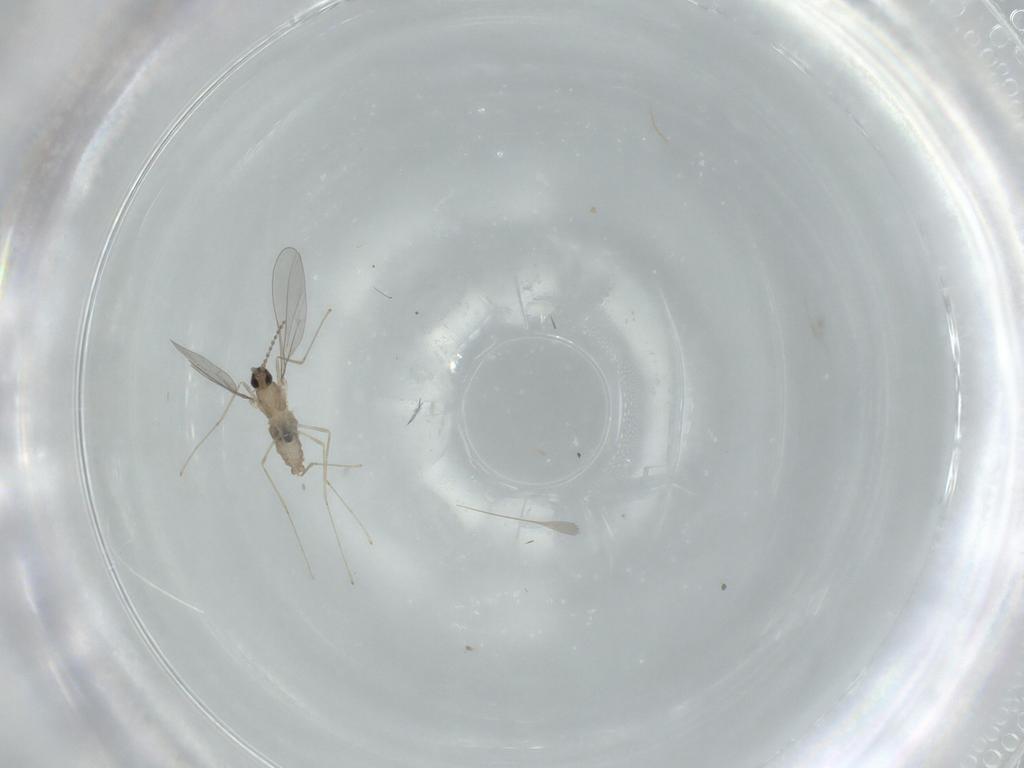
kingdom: Animalia
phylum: Arthropoda
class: Insecta
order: Diptera
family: Cecidomyiidae
